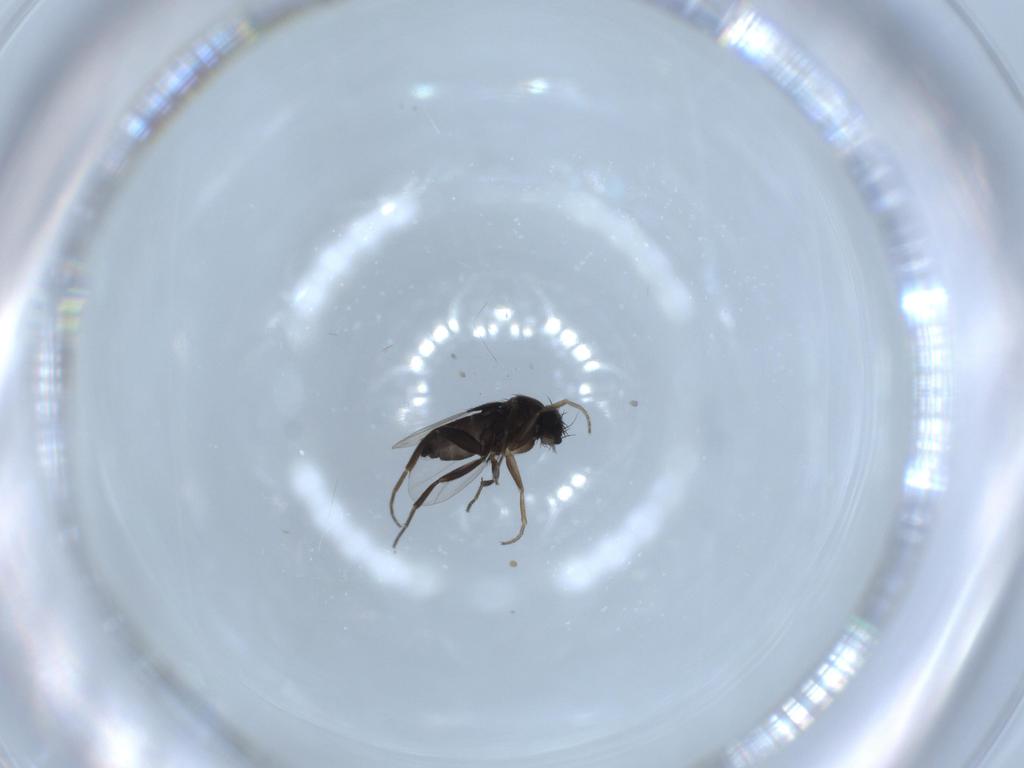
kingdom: Animalia
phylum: Arthropoda
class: Insecta
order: Diptera
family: Phoridae
